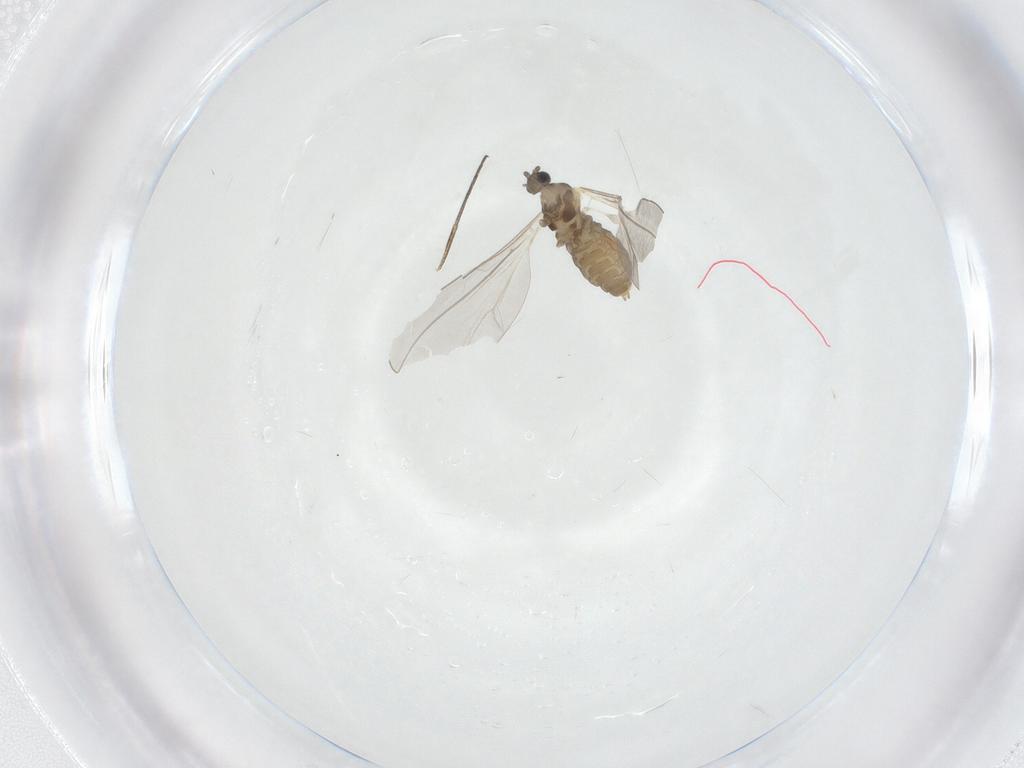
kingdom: Animalia
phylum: Arthropoda
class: Insecta
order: Diptera
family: Cecidomyiidae
